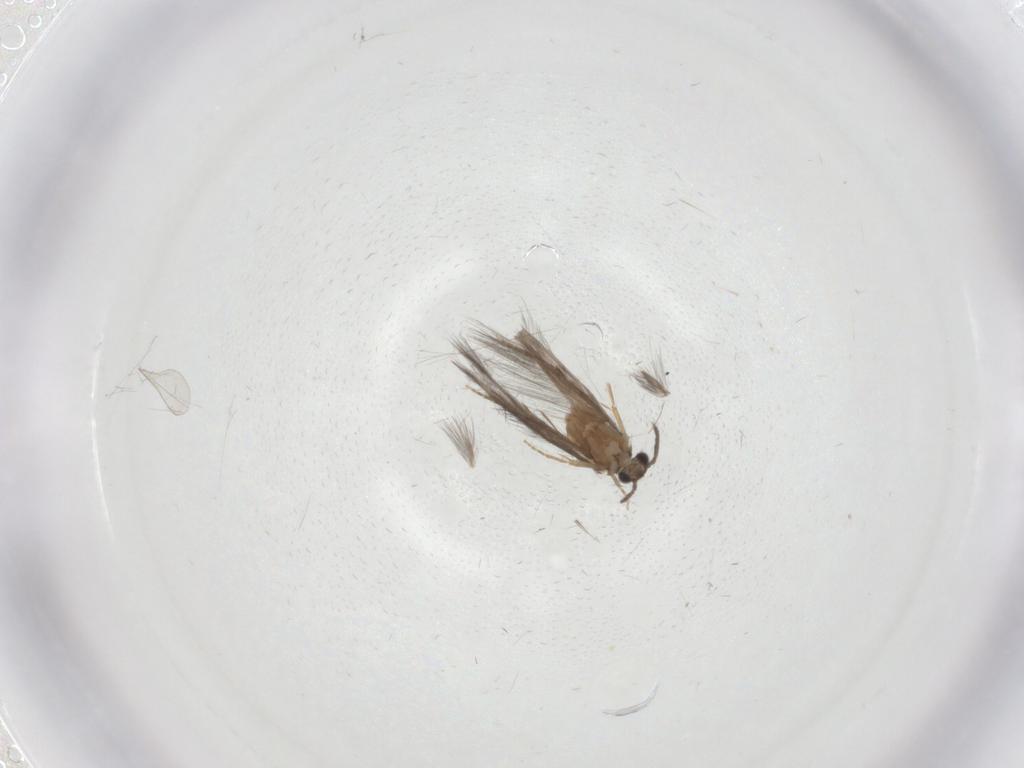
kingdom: Animalia
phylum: Arthropoda
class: Insecta
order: Trichoptera
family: Hydroptilidae
